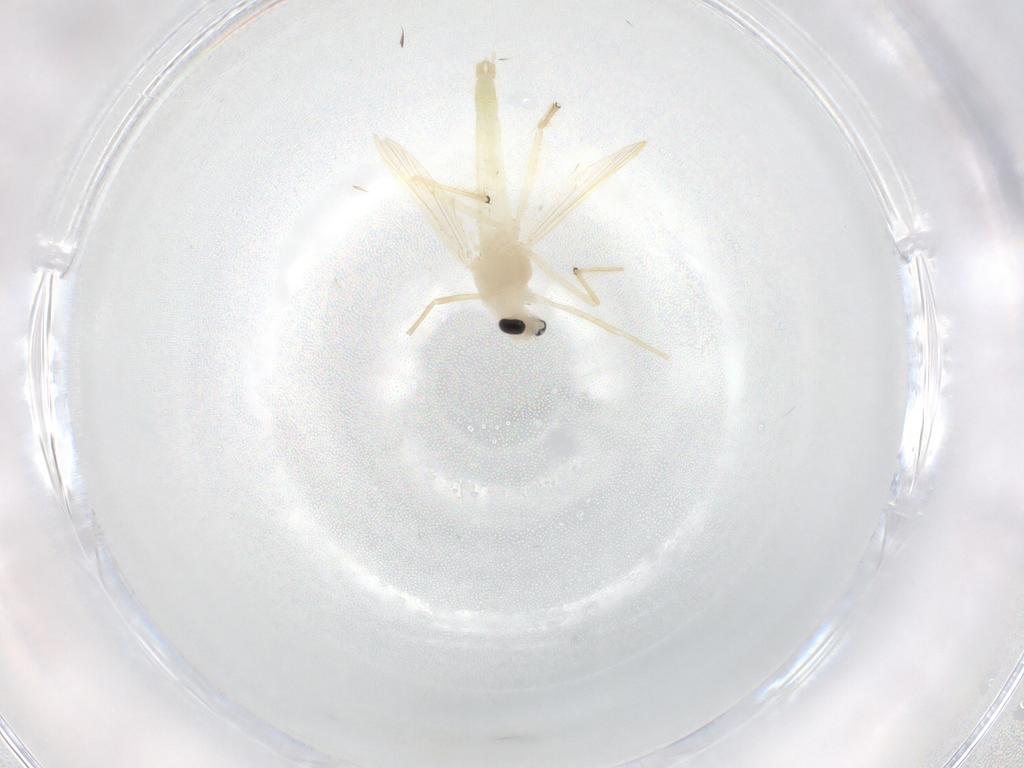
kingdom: Animalia
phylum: Arthropoda
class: Insecta
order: Diptera
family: Chironomidae
